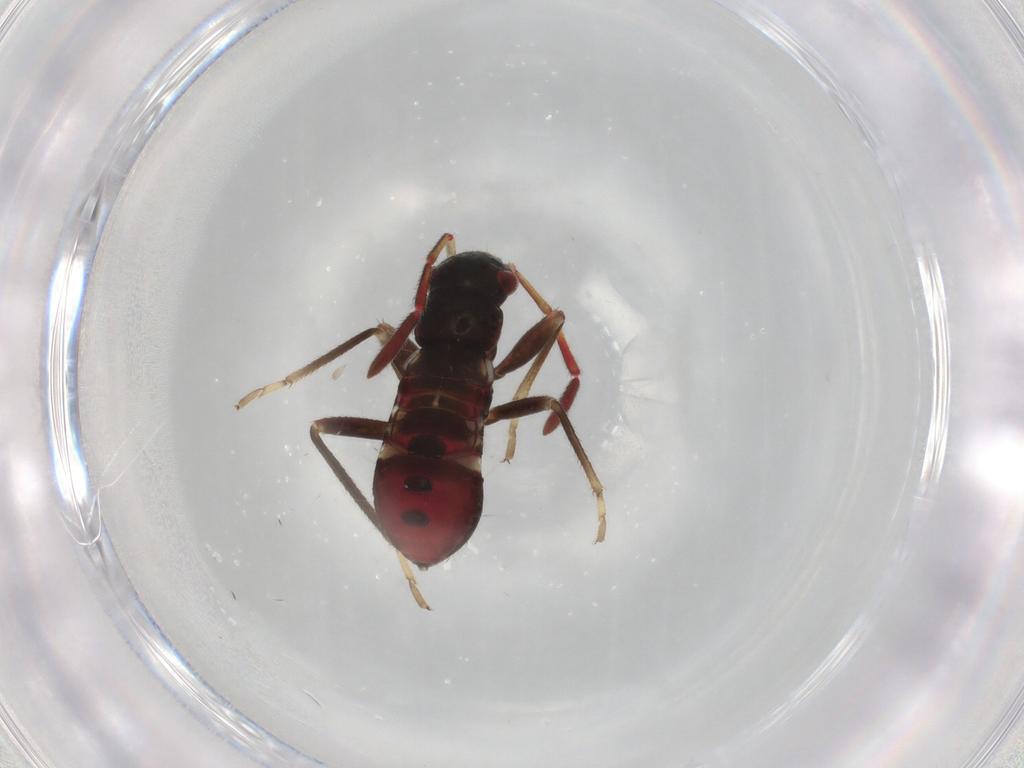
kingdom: Animalia
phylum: Arthropoda
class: Insecta
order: Hemiptera
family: Rhyparochromidae
